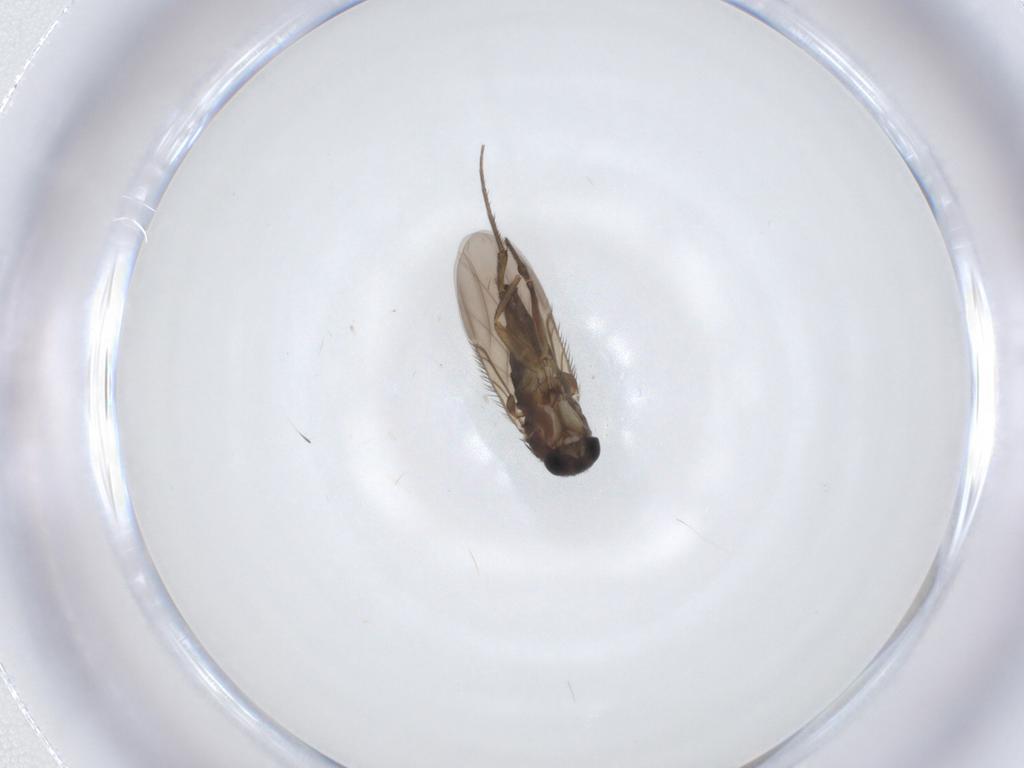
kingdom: Animalia
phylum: Arthropoda
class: Insecta
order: Diptera
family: Phoridae
